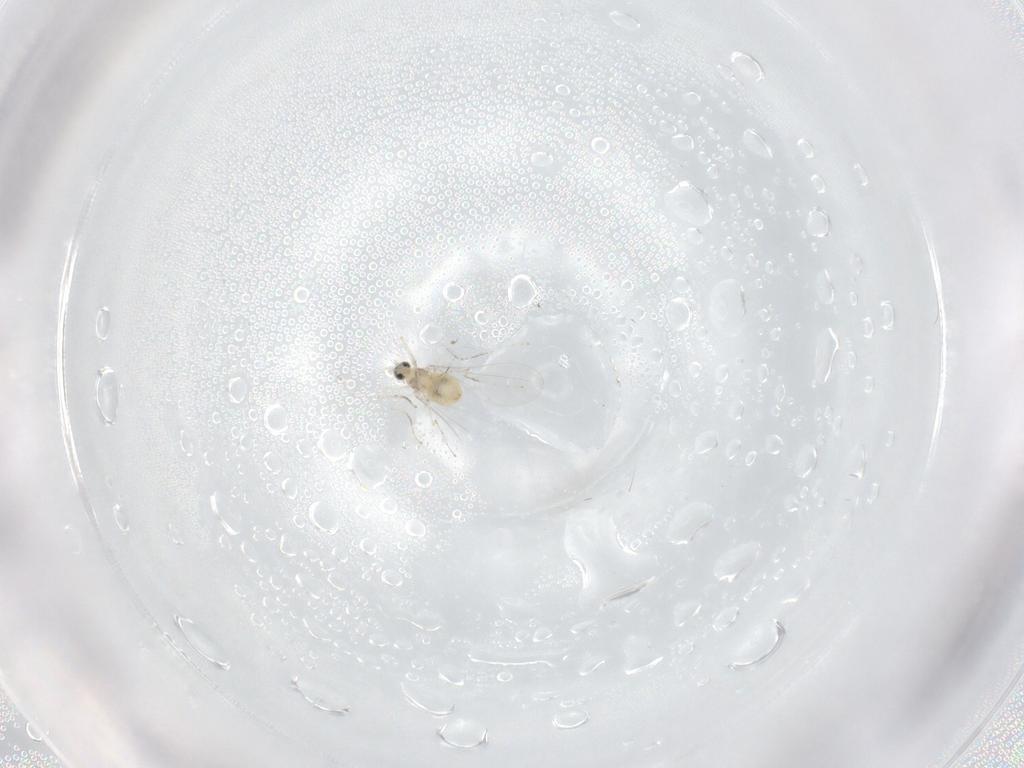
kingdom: Animalia
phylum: Arthropoda
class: Insecta
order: Diptera
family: Cecidomyiidae
